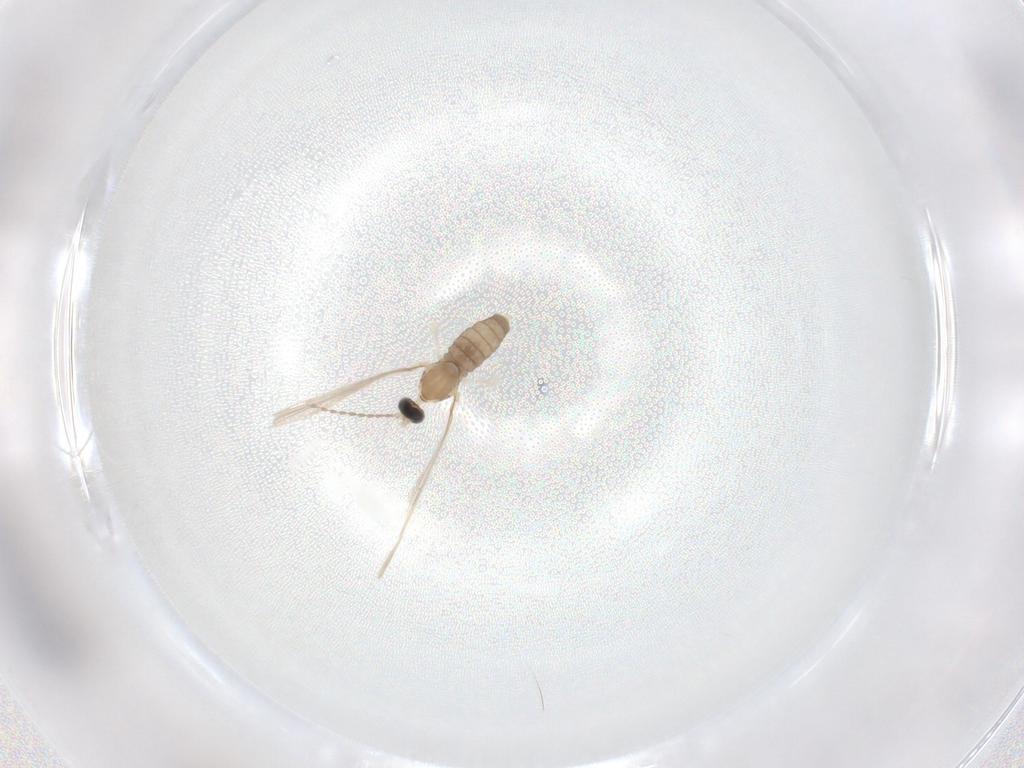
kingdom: Animalia
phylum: Arthropoda
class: Insecta
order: Diptera
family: Cecidomyiidae
